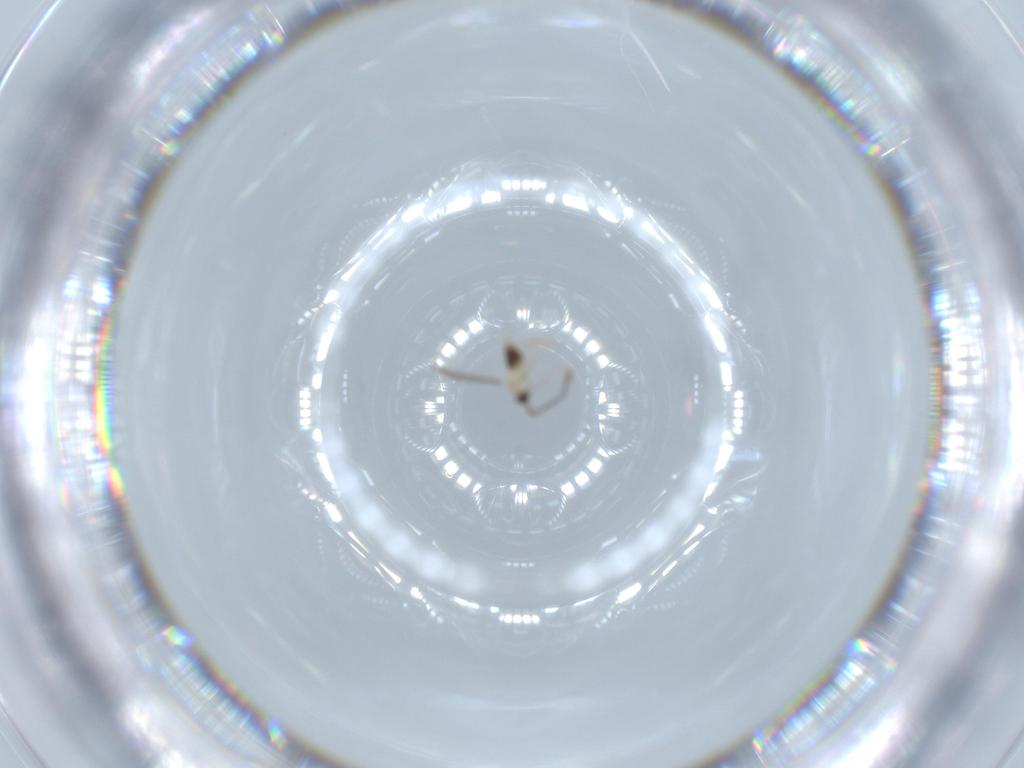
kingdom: Animalia
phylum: Arthropoda
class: Insecta
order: Hymenoptera
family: Mymaridae
